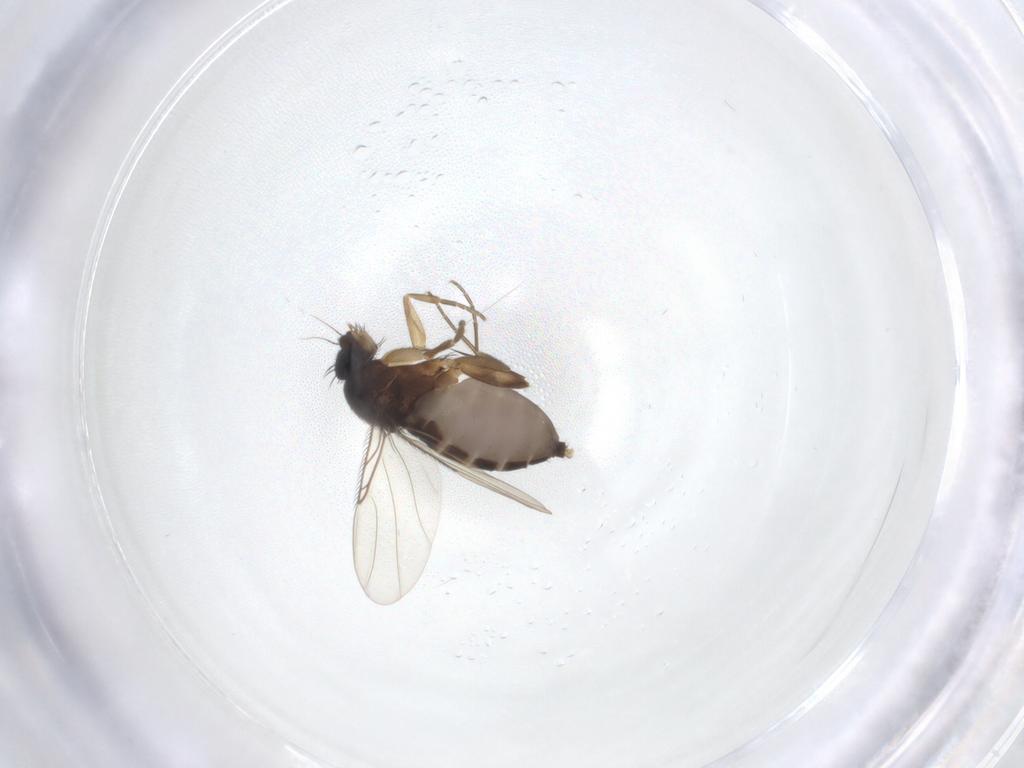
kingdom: Animalia
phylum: Arthropoda
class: Insecta
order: Diptera
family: Phoridae
